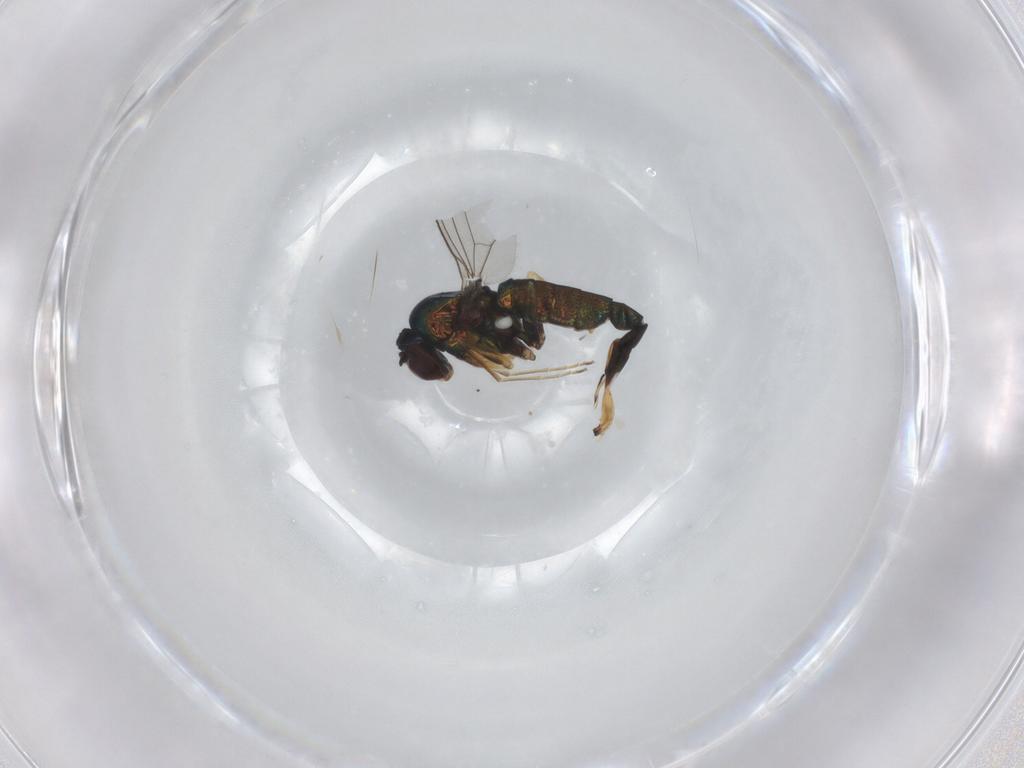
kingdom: Animalia
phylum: Arthropoda
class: Insecta
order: Diptera
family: Dolichopodidae
